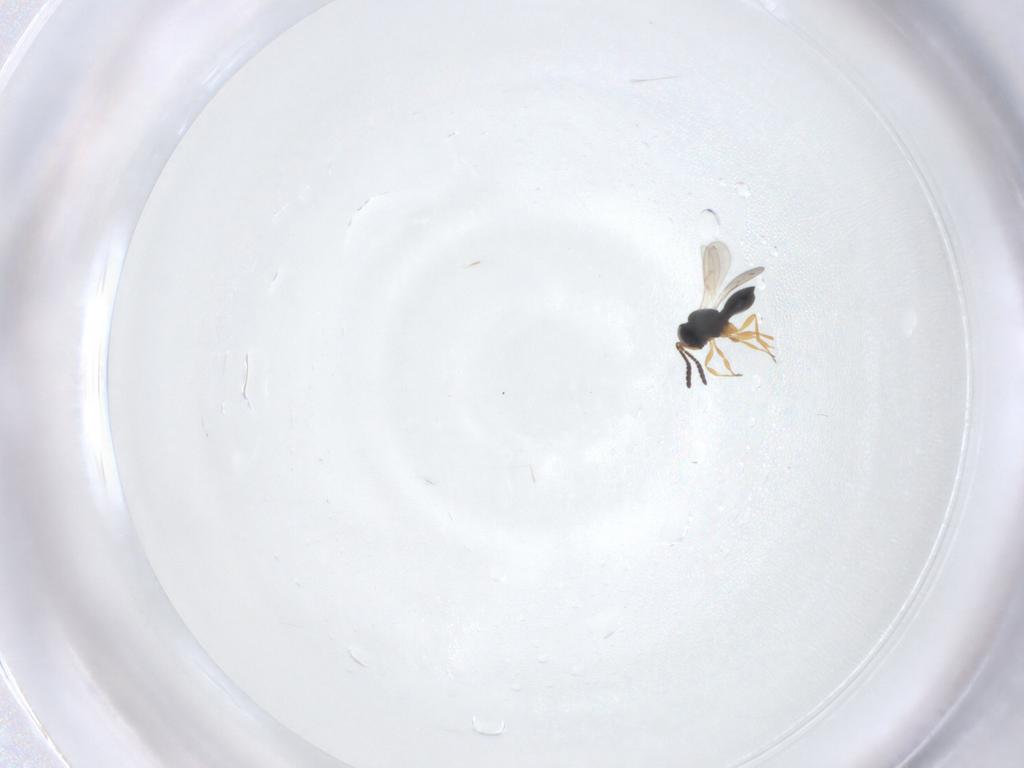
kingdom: Animalia
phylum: Arthropoda
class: Insecta
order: Hymenoptera
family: Scelionidae
